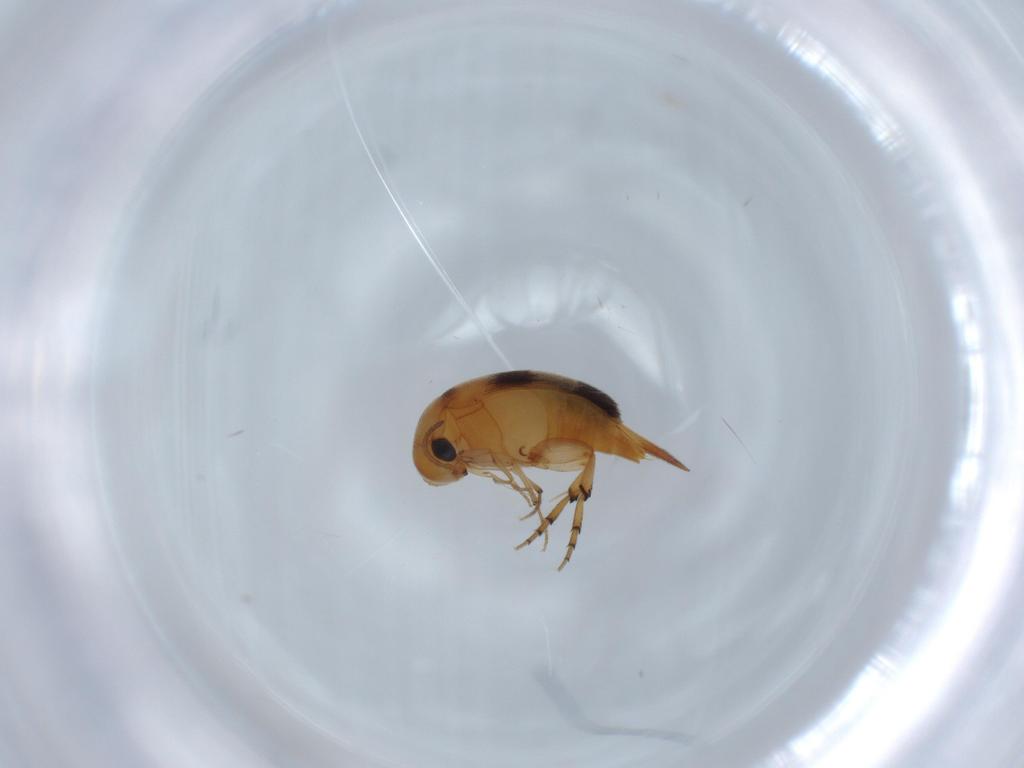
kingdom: Animalia
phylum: Arthropoda
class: Insecta
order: Coleoptera
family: Mordellidae
